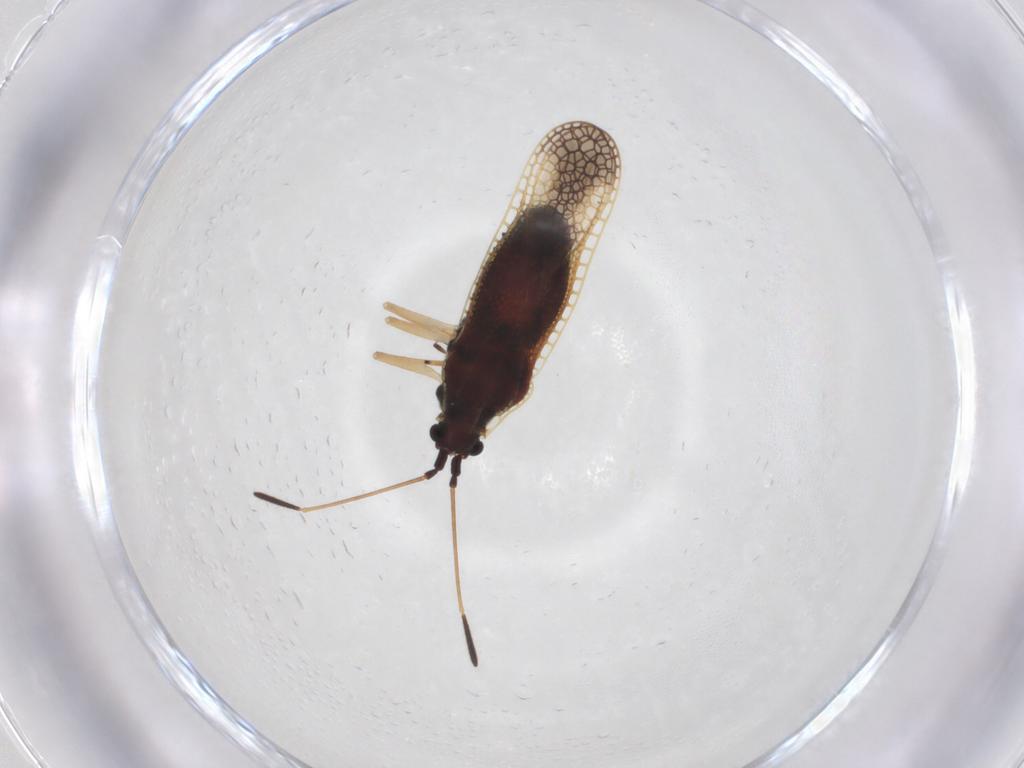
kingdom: Animalia
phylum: Arthropoda
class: Insecta
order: Hemiptera
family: Tingidae
